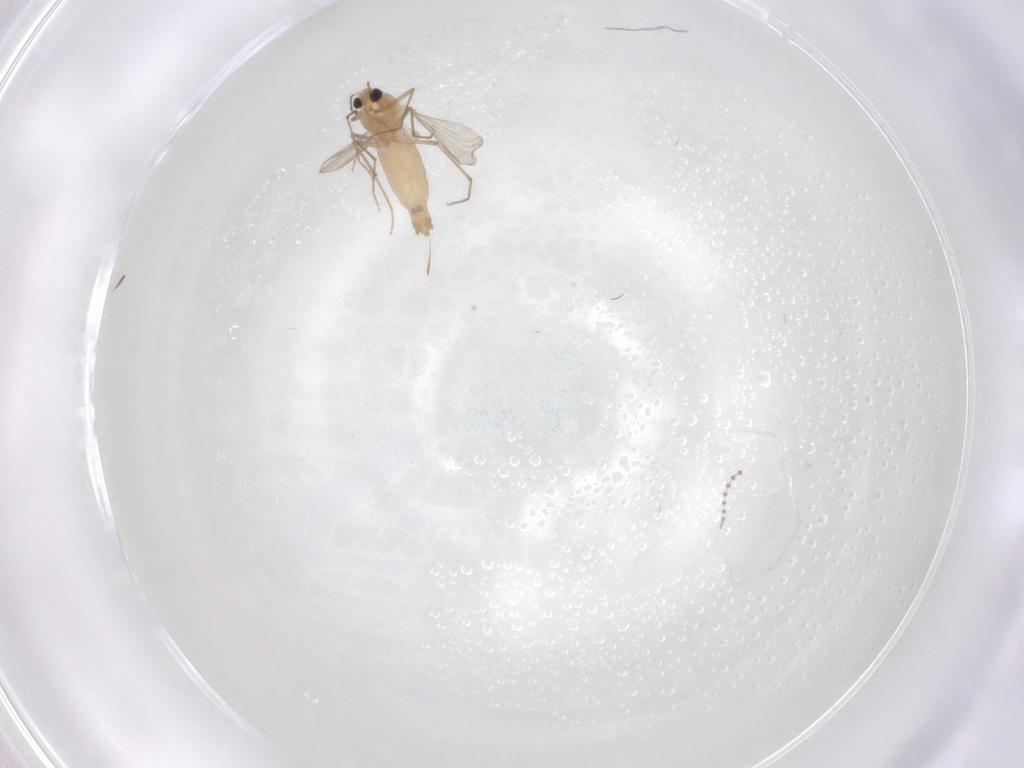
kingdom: Animalia
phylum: Arthropoda
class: Insecta
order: Diptera
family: Chironomidae
